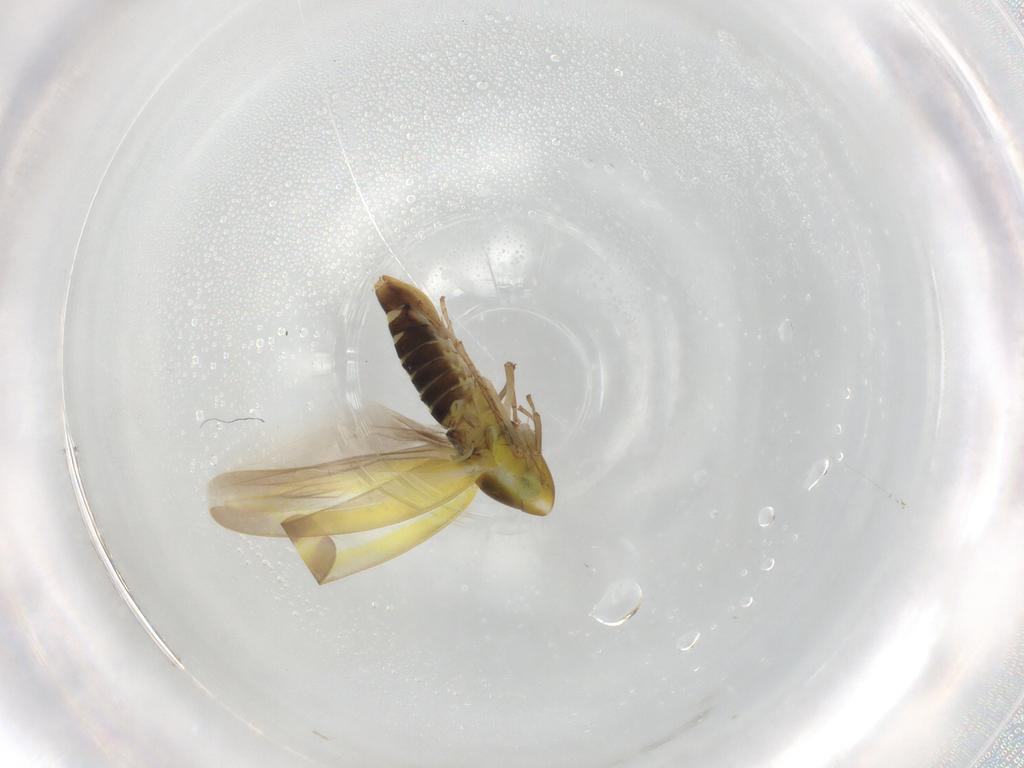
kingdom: Animalia
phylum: Arthropoda
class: Insecta
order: Hemiptera
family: Cicadellidae
